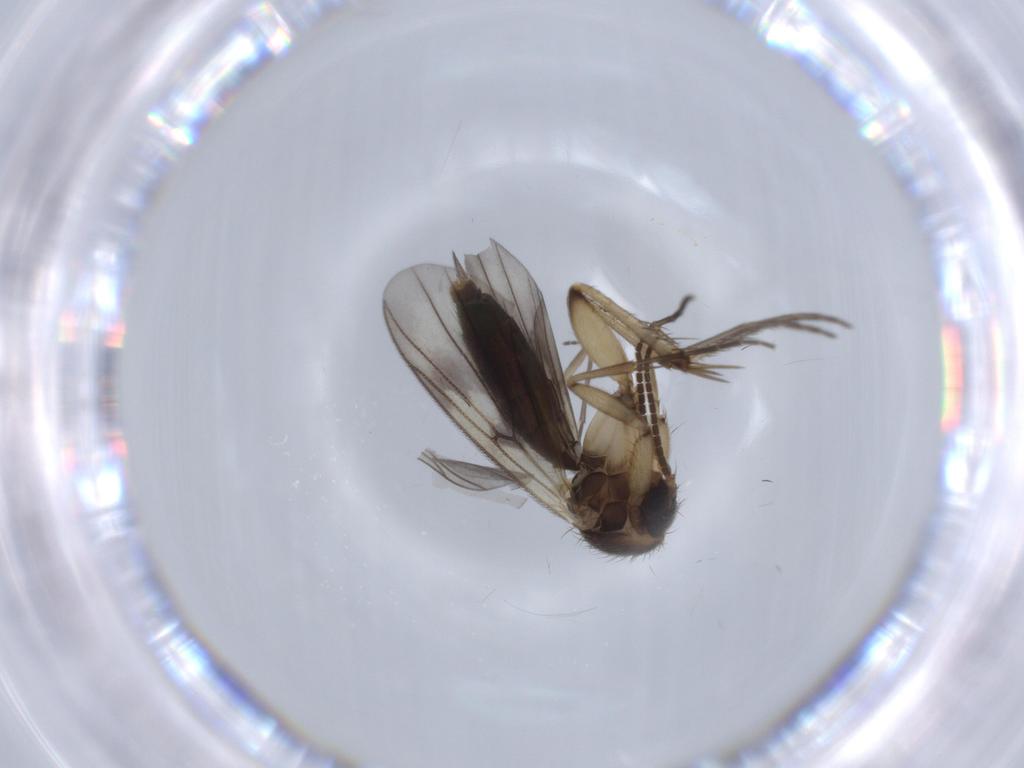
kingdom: Animalia
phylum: Arthropoda
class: Insecta
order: Diptera
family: Sciaridae
